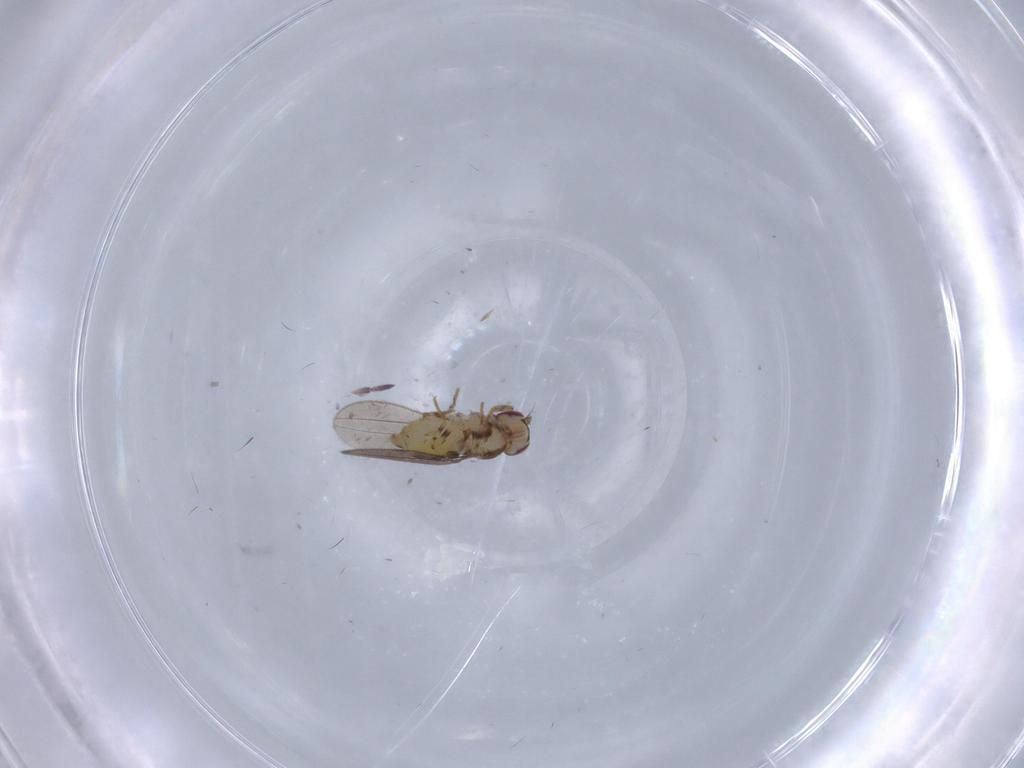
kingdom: Animalia
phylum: Arthropoda
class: Insecta
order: Diptera
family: Asteiidae
